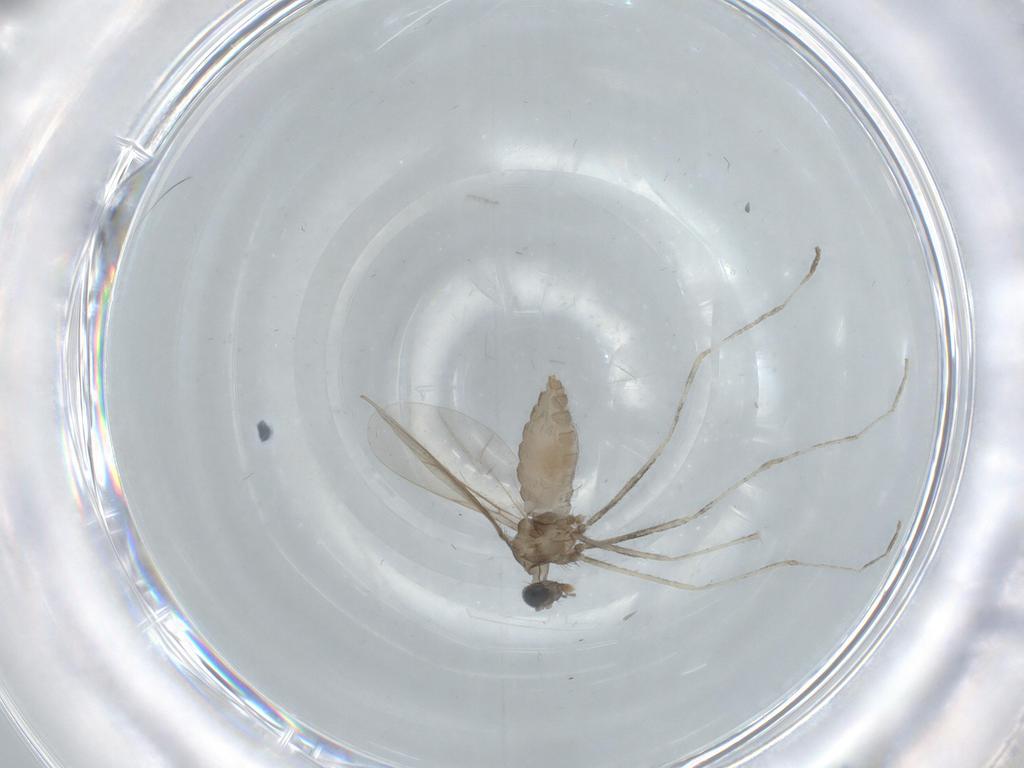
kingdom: Animalia
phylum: Arthropoda
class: Insecta
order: Diptera
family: Cecidomyiidae
